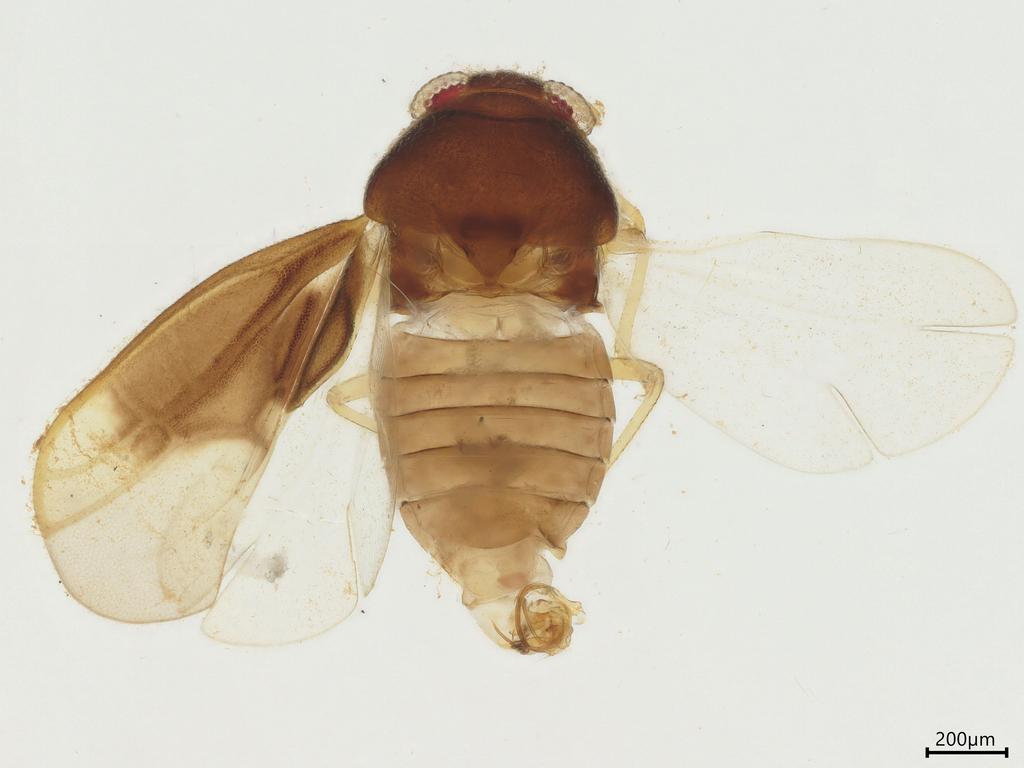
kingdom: Animalia
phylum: Arthropoda
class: Insecta
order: Hemiptera
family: Schizopteridae
